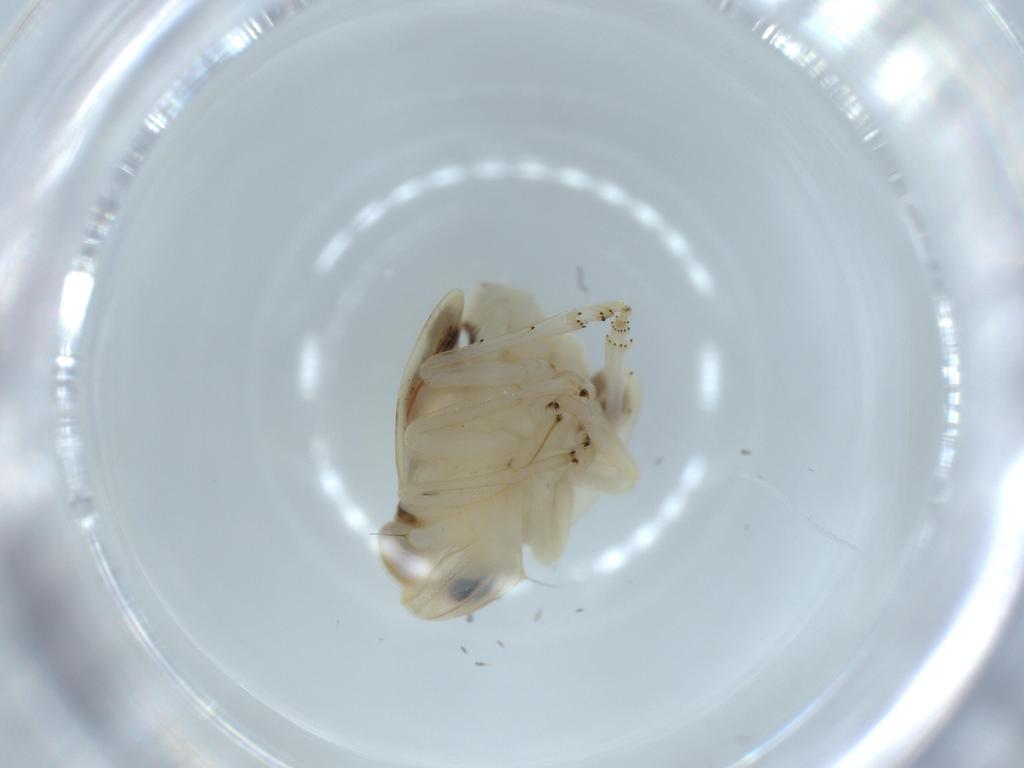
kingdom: Animalia
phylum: Arthropoda
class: Insecta
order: Hemiptera
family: Nogodinidae
